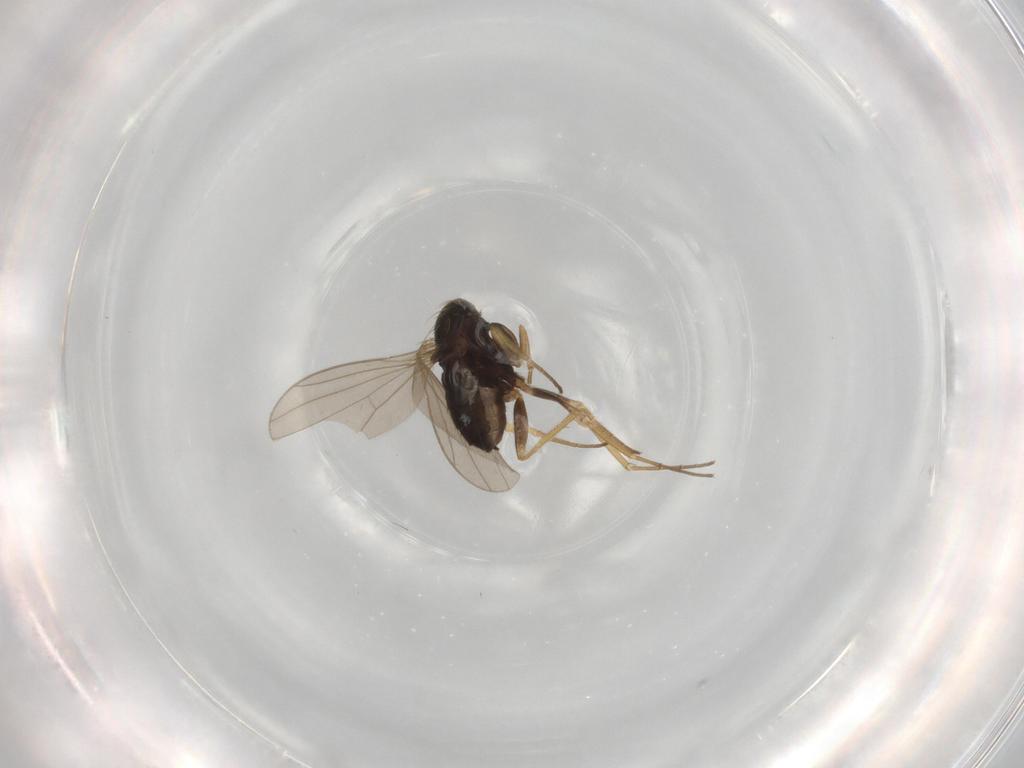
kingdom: Animalia
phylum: Arthropoda
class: Insecta
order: Diptera
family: Dolichopodidae
